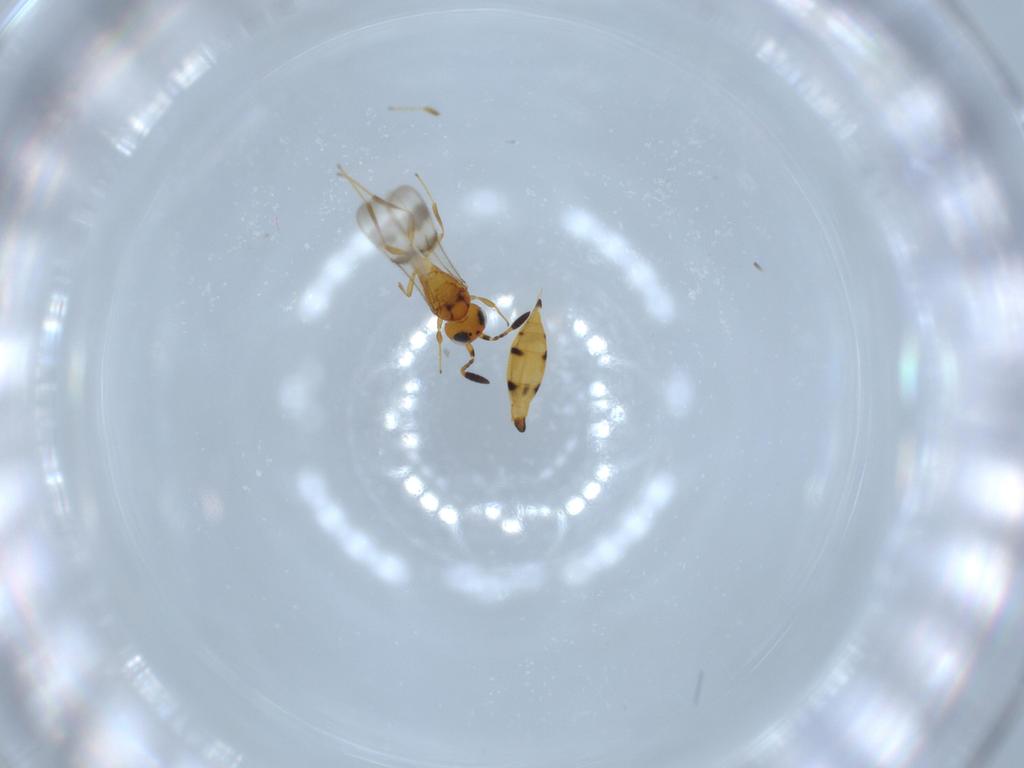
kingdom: Animalia
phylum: Arthropoda
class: Insecta
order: Hymenoptera
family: Scelionidae
